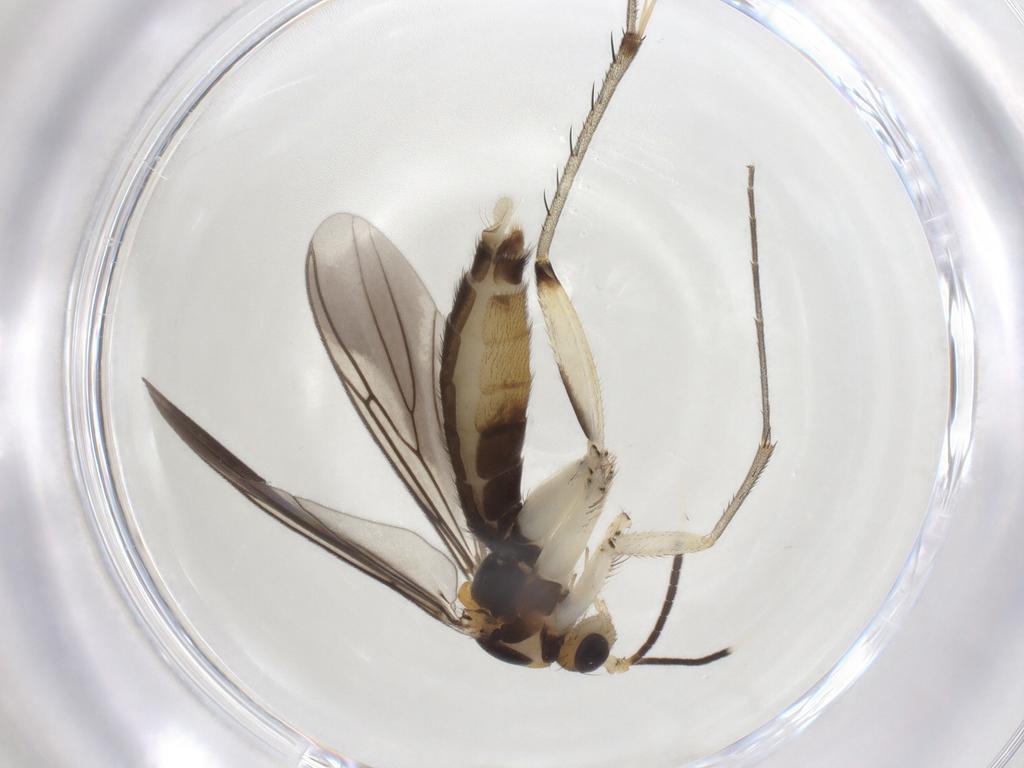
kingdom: Animalia
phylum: Arthropoda
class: Insecta
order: Diptera
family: Mycetophilidae
